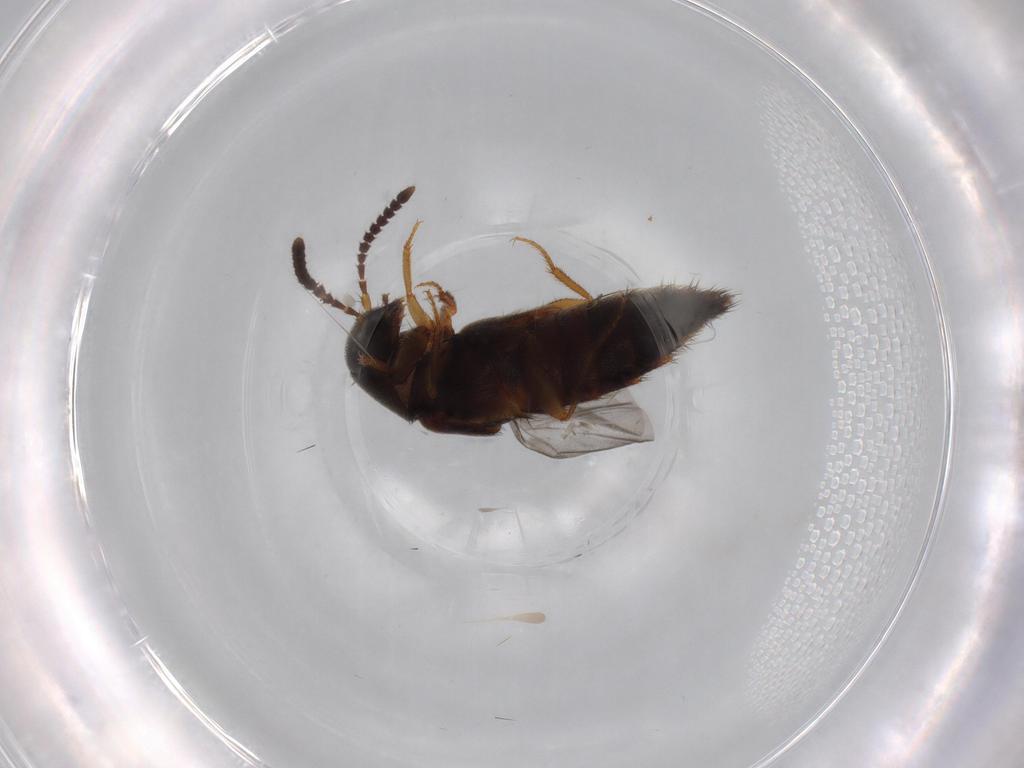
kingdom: Animalia
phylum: Arthropoda
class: Insecta
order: Coleoptera
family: Staphylinidae
